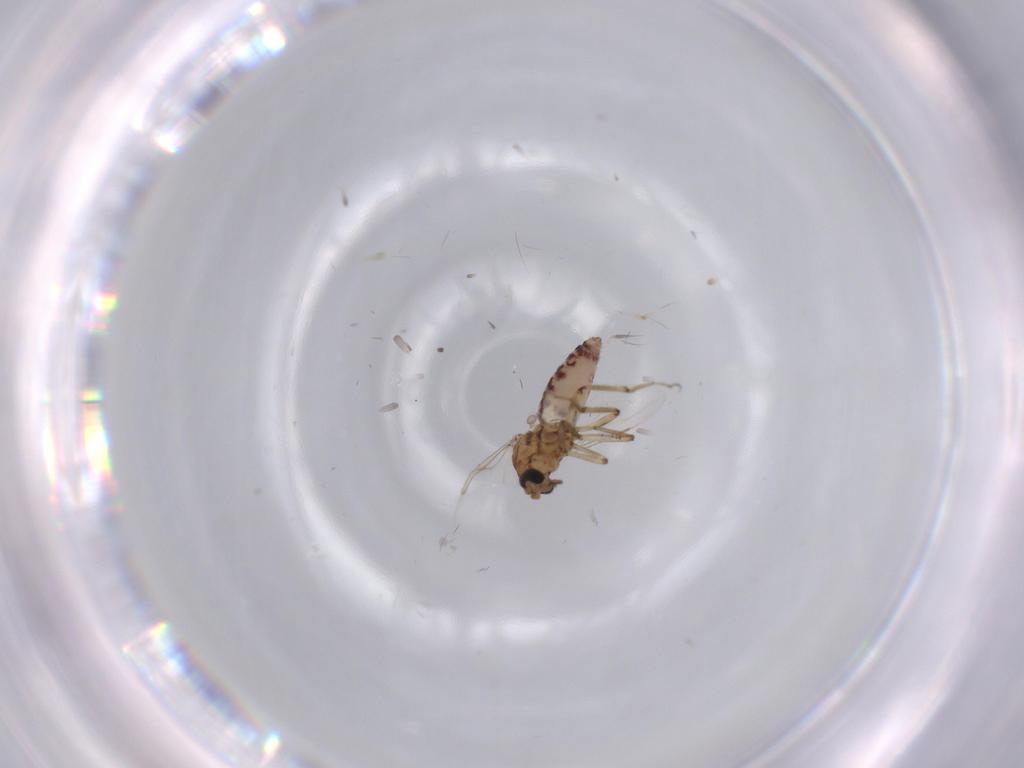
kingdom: Animalia
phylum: Arthropoda
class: Insecta
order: Diptera
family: Ceratopogonidae
